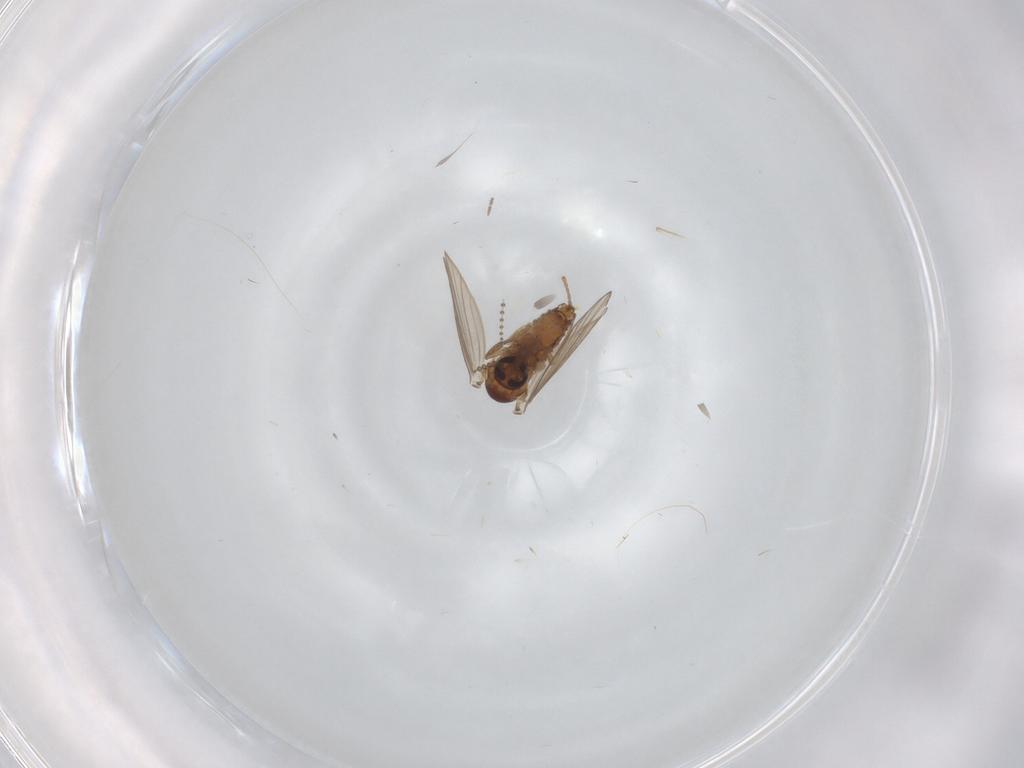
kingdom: Animalia
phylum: Arthropoda
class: Insecta
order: Diptera
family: Psychodidae
